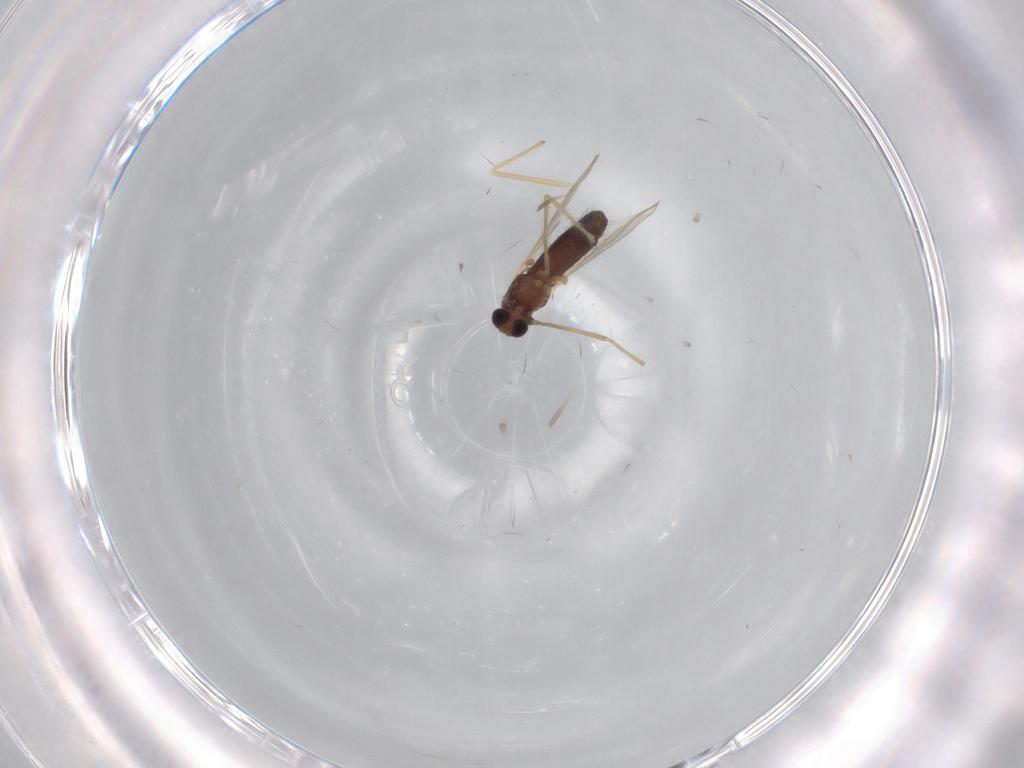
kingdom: Animalia
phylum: Arthropoda
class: Insecta
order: Diptera
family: Chironomidae
